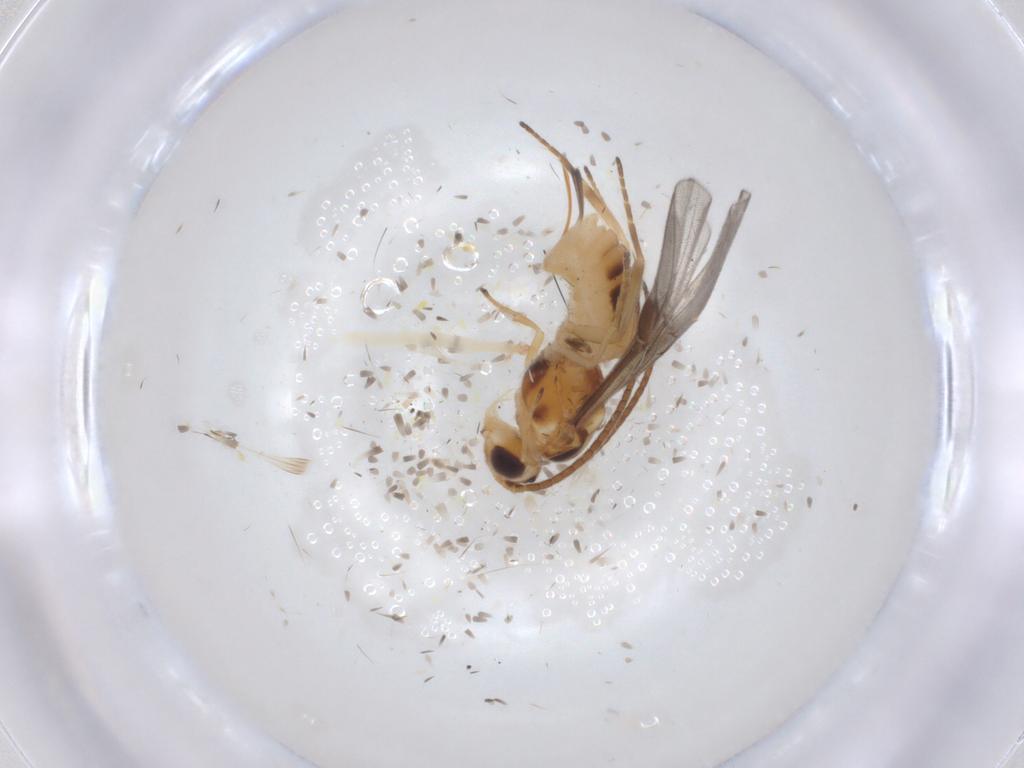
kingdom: Animalia
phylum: Arthropoda
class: Insecta
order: Hymenoptera
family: Braconidae
